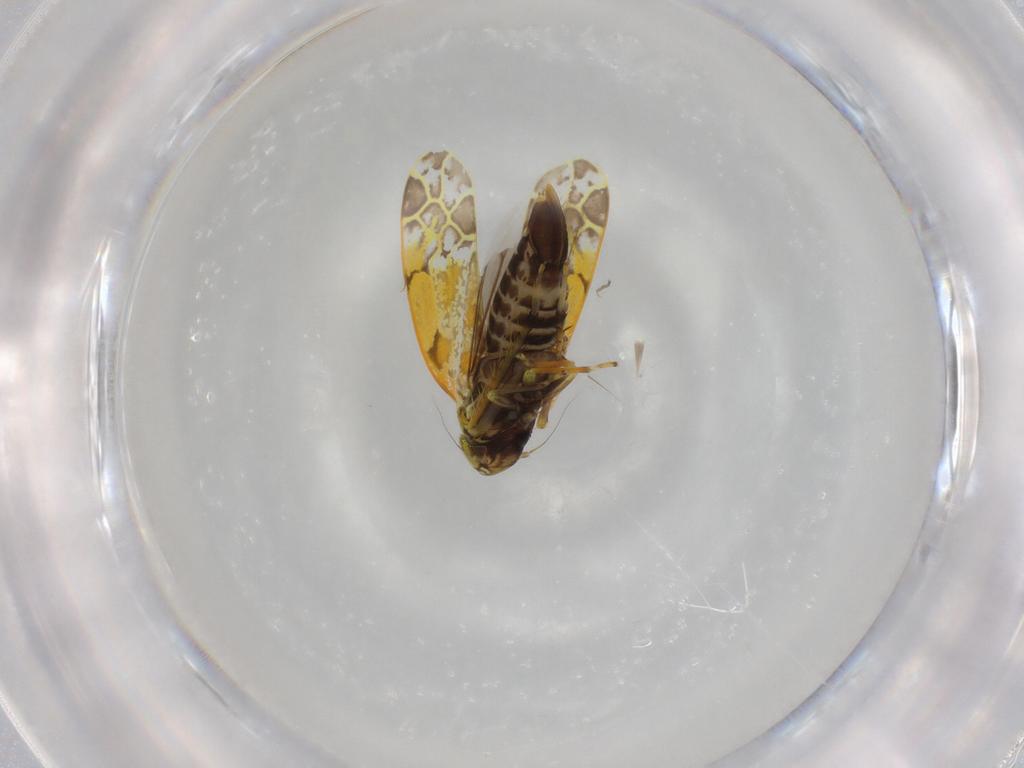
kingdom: Animalia
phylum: Arthropoda
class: Insecta
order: Hemiptera
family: Cicadellidae
